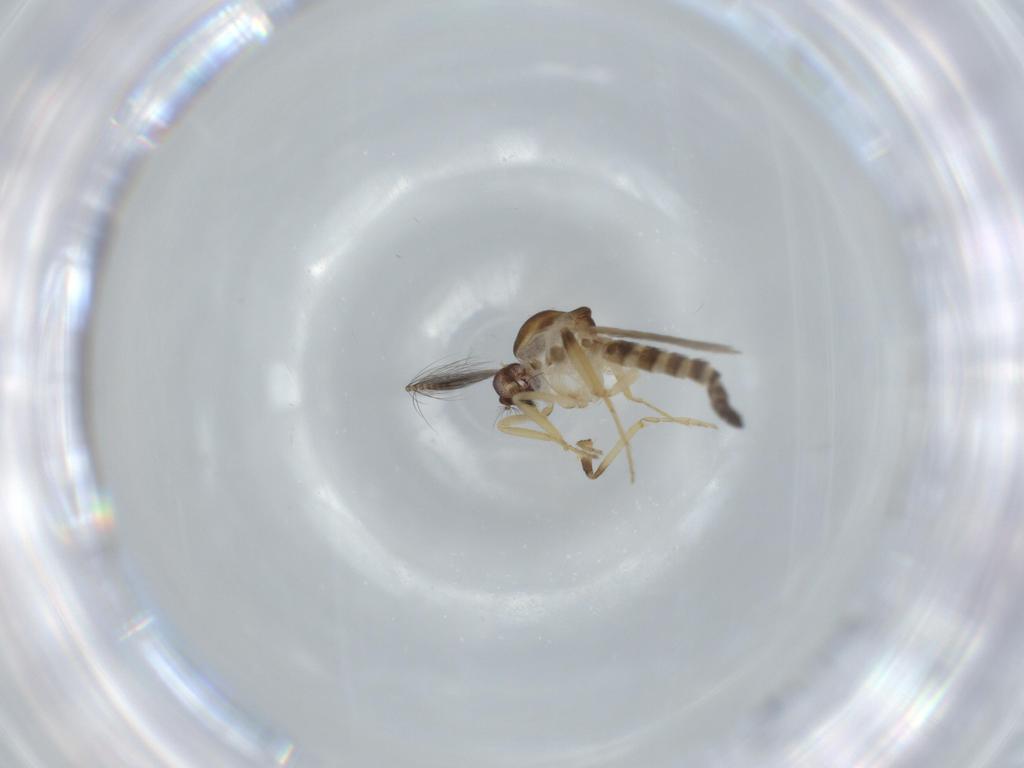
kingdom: Animalia
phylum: Arthropoda
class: Insecta
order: Diptera
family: Ceratopogonidae
